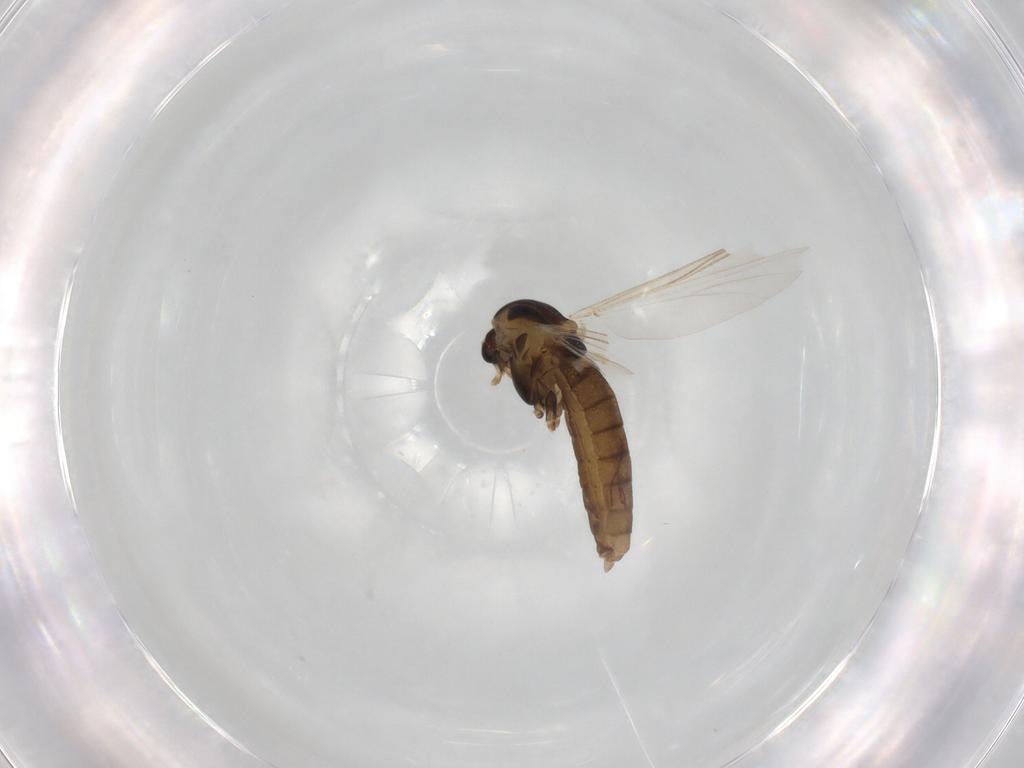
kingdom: Animalia
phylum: Arthropoda
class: Insecta
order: Diptera
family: Chironomidae
